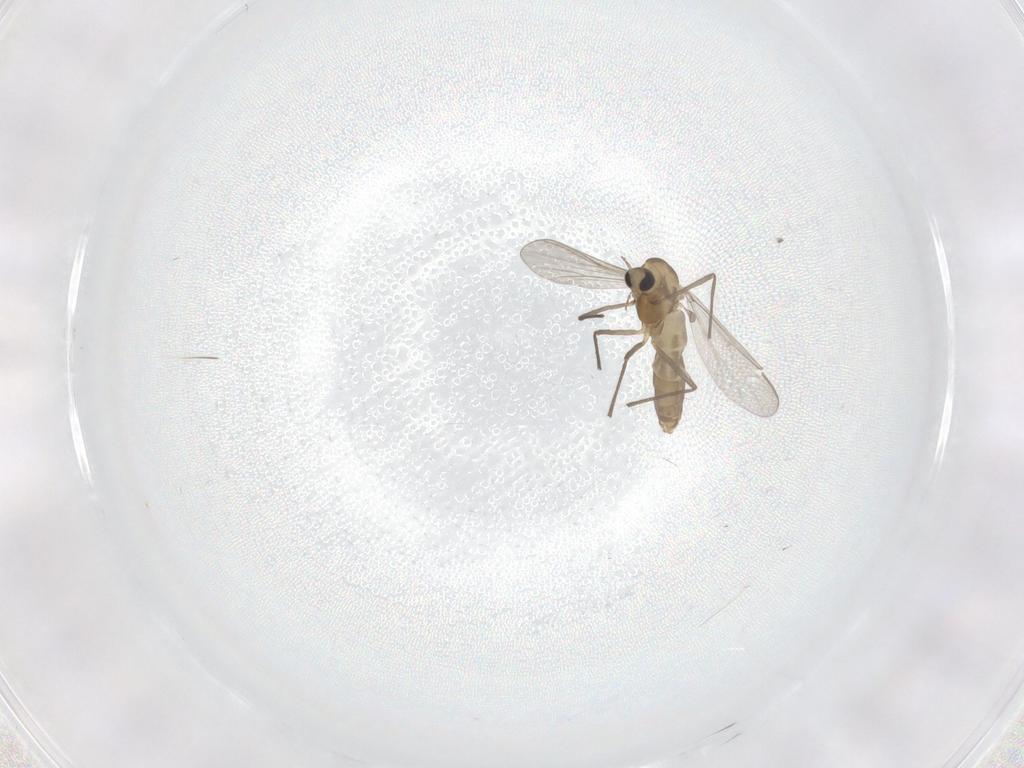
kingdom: Animalia
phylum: Arthropoda
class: Insecta
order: Diptera
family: Cecidomyiidae
